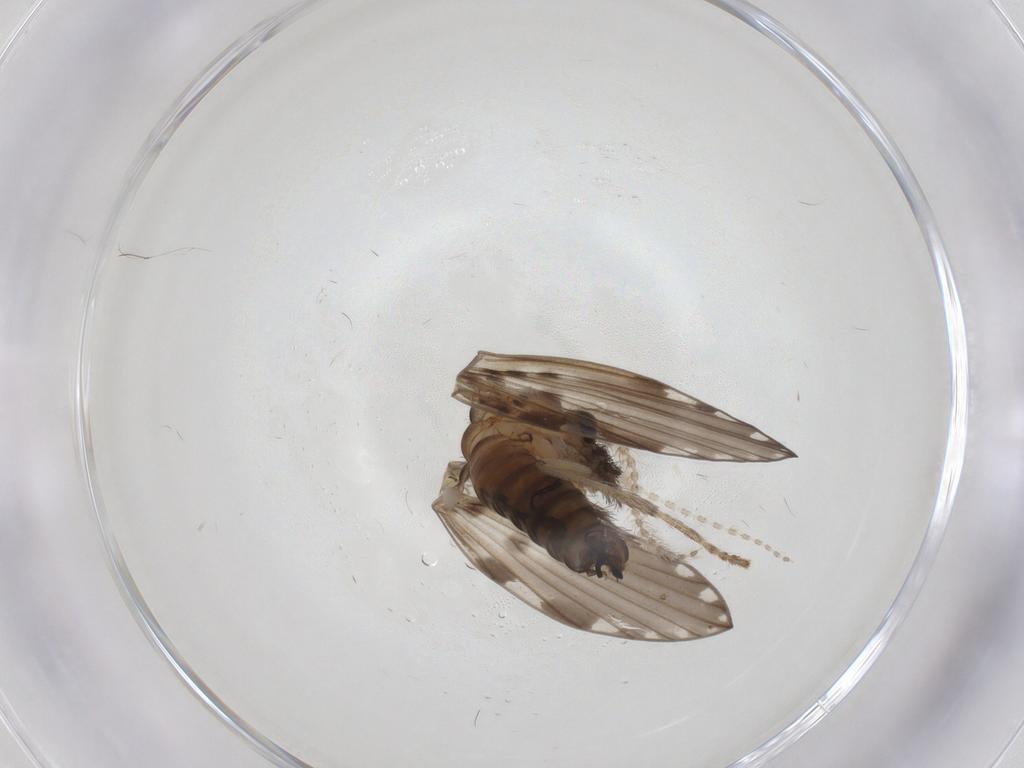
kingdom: Animalia
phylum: Arthropoda
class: Insecta
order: Diptera
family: Psychodidae
